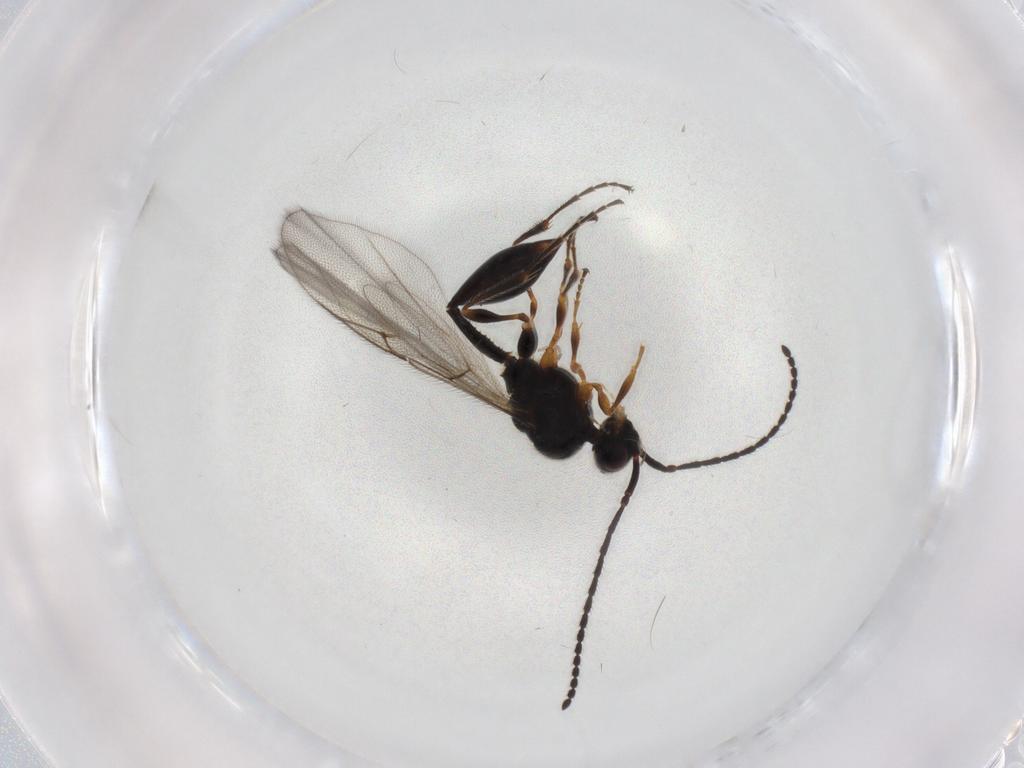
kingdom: Animalia
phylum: Arthropoda
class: Insecta
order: Hymenoptera
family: Diapriidae
